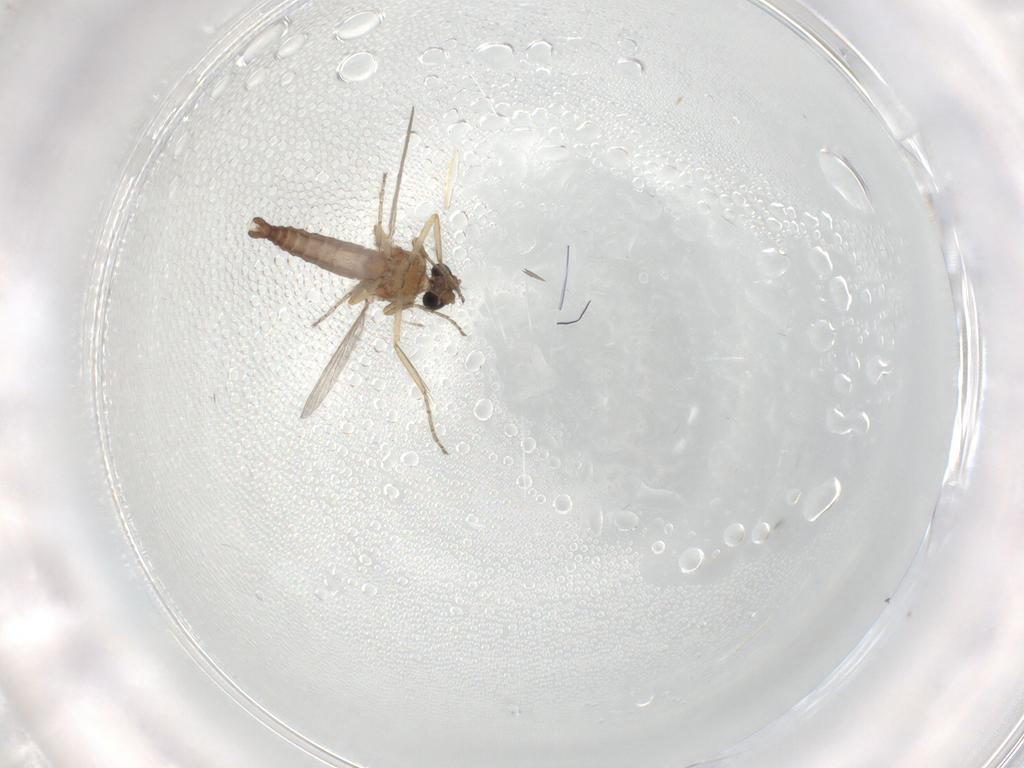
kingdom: Animalia
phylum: Arthropoda
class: Insecta
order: Diptera
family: Ceratopogonidae
